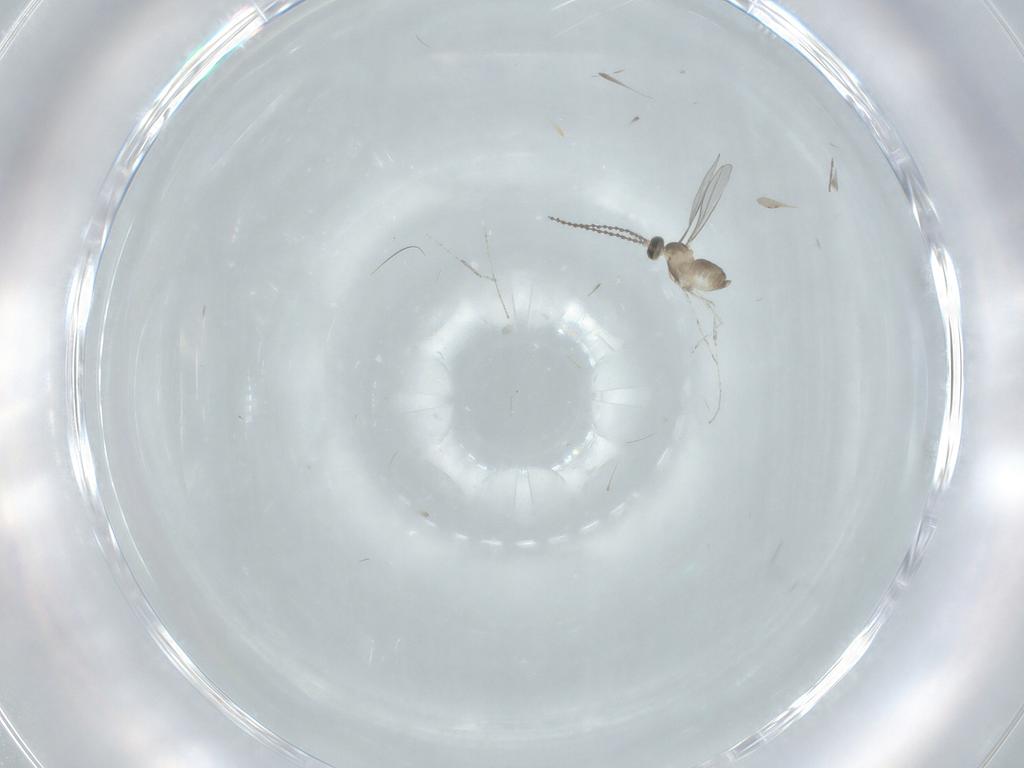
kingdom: Animalia
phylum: Arthropoda
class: Insecta
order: Diptera
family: Cecidomyiidae
